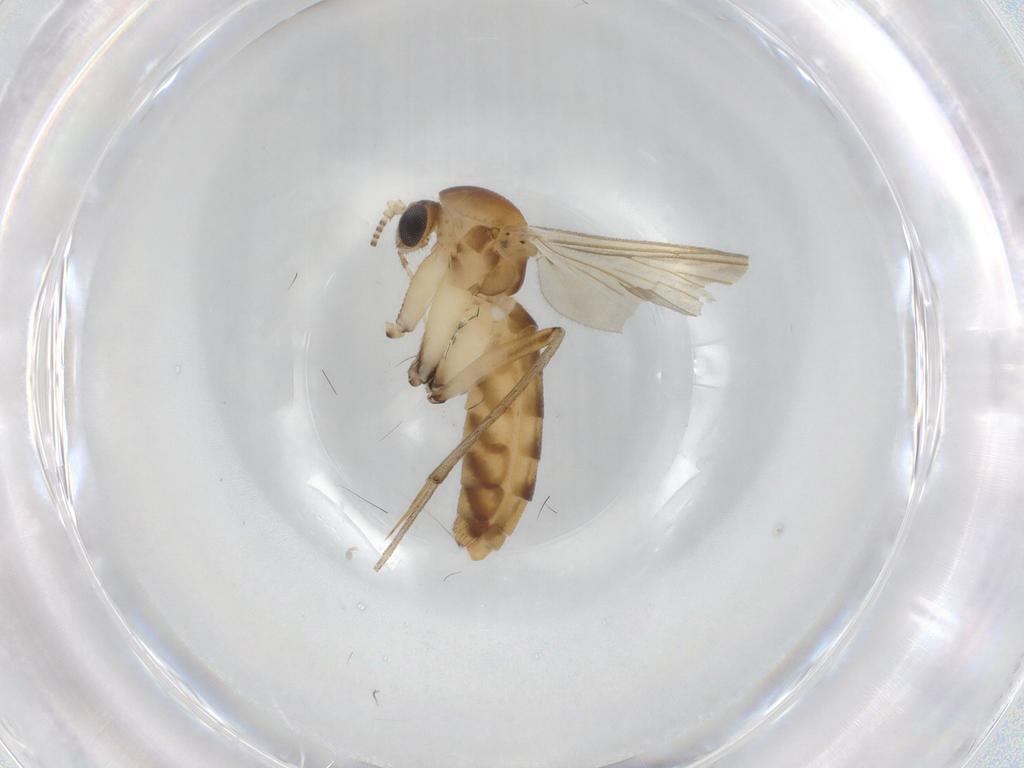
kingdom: Animalia
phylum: Arthropoda
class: Insecta
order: Diptera
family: Mycetophilidae
